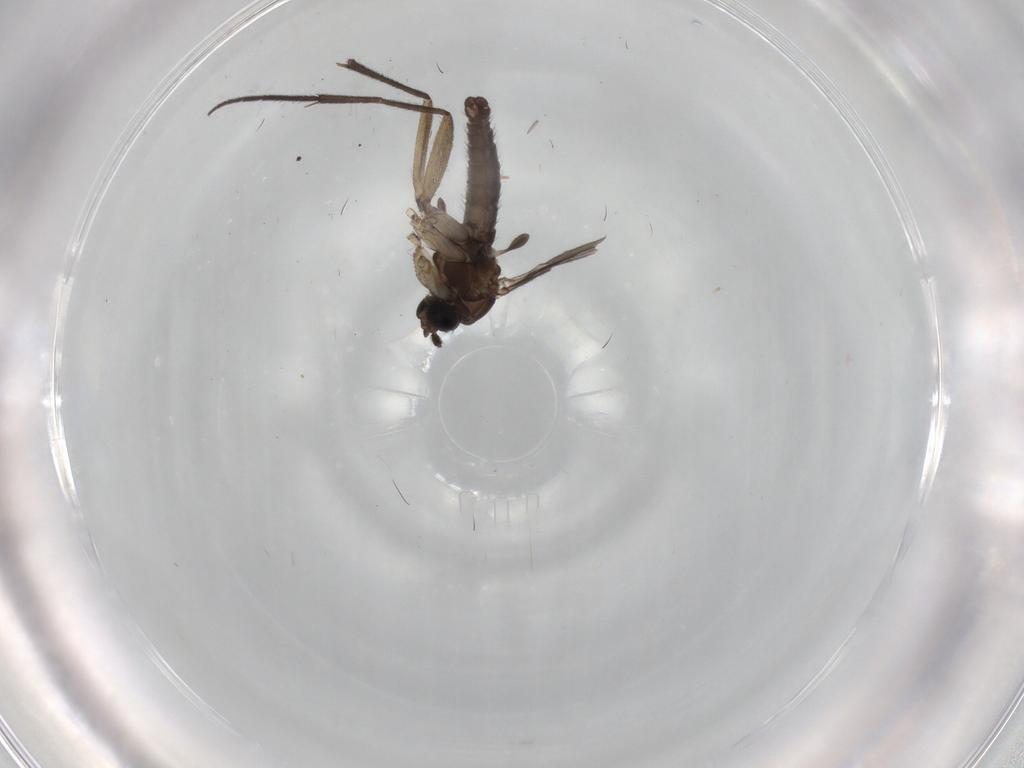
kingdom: Animalia
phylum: Arthropoda
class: Insecta
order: Diptera
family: Sciaridae
